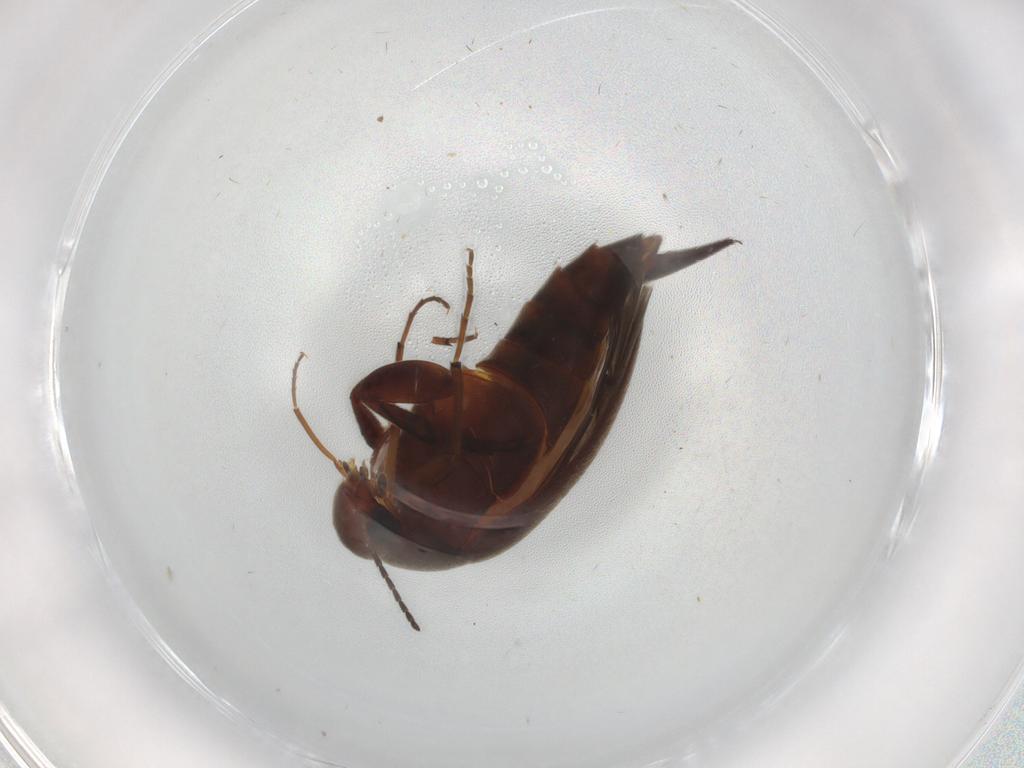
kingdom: Animalia
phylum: Arthropoda
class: Insecta
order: Coleoptera
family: Mordellidae
